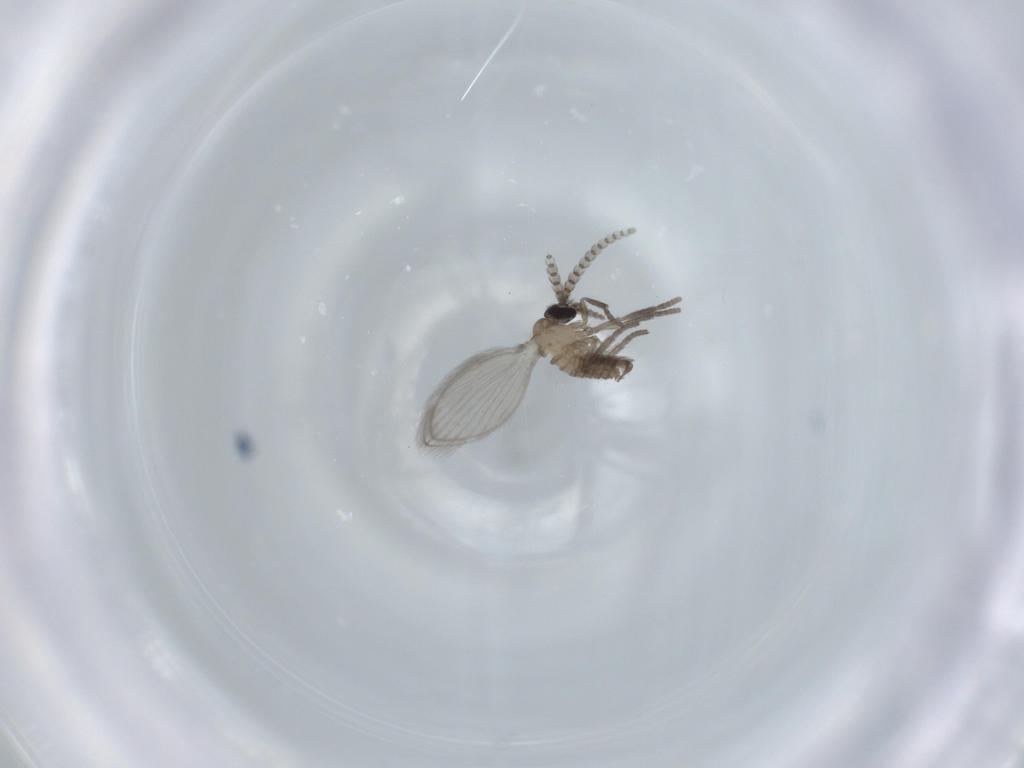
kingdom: Animalia
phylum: Arthropoda
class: Insecta
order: Diptera
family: Psychodidae
